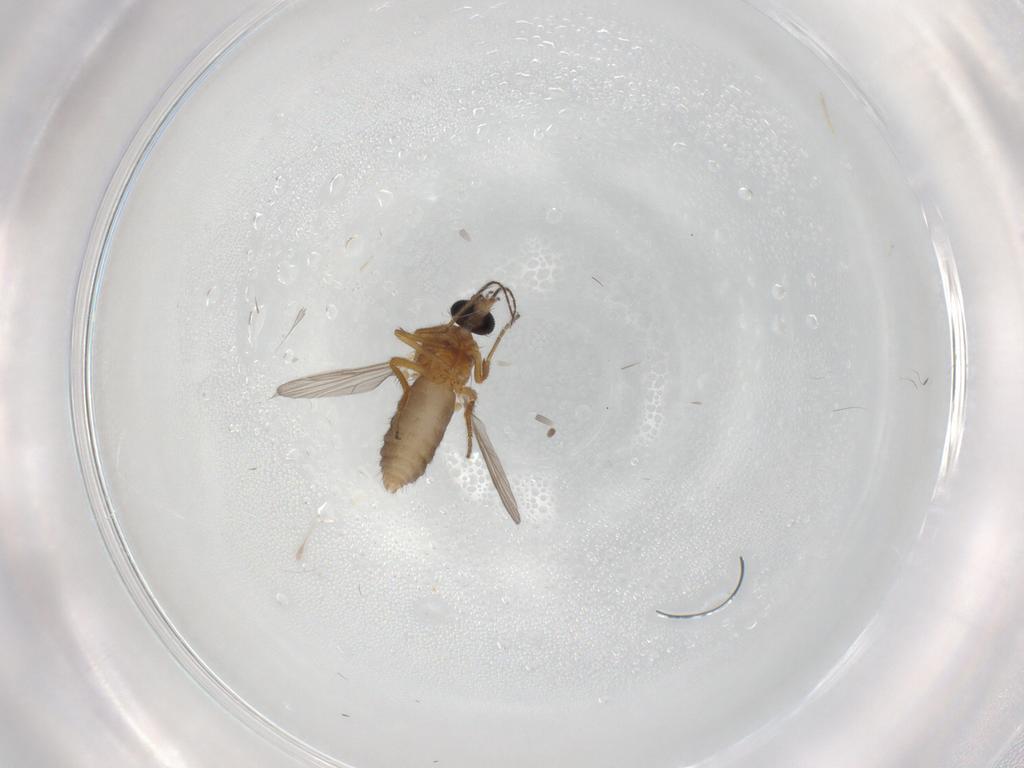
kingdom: Animalia
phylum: Arthropoda
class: Insecta
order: Diptera
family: Ceratopogonidae
